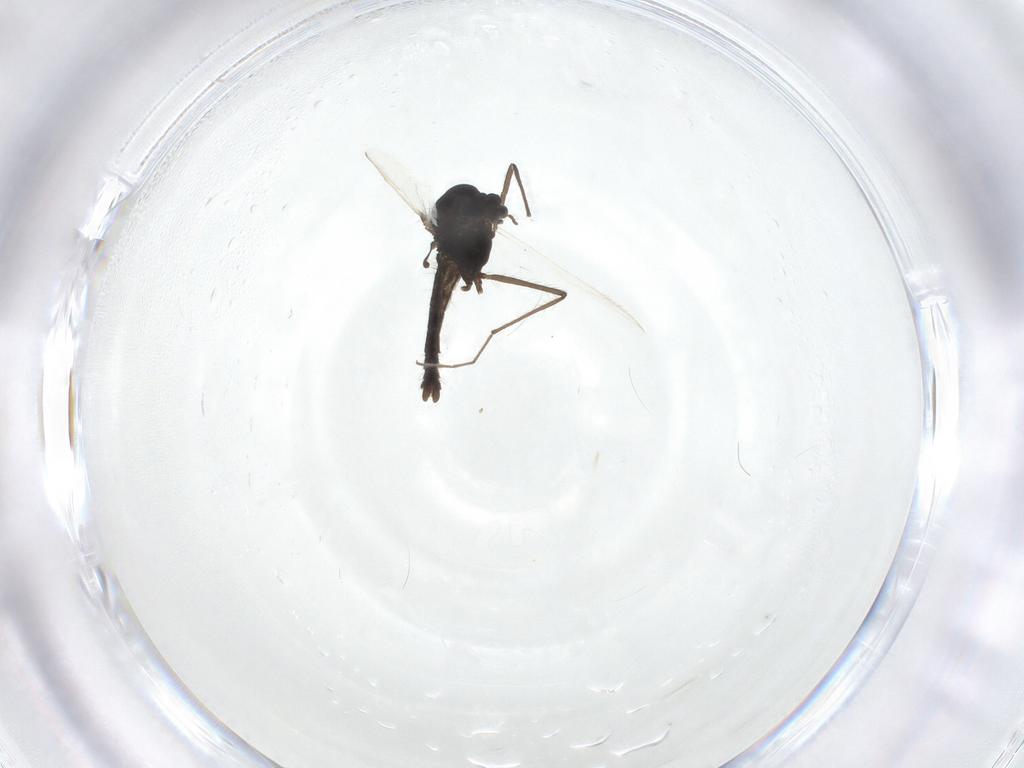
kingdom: Animalia
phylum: Arthropoda
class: Insecta
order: Diptera
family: Chironomidae
